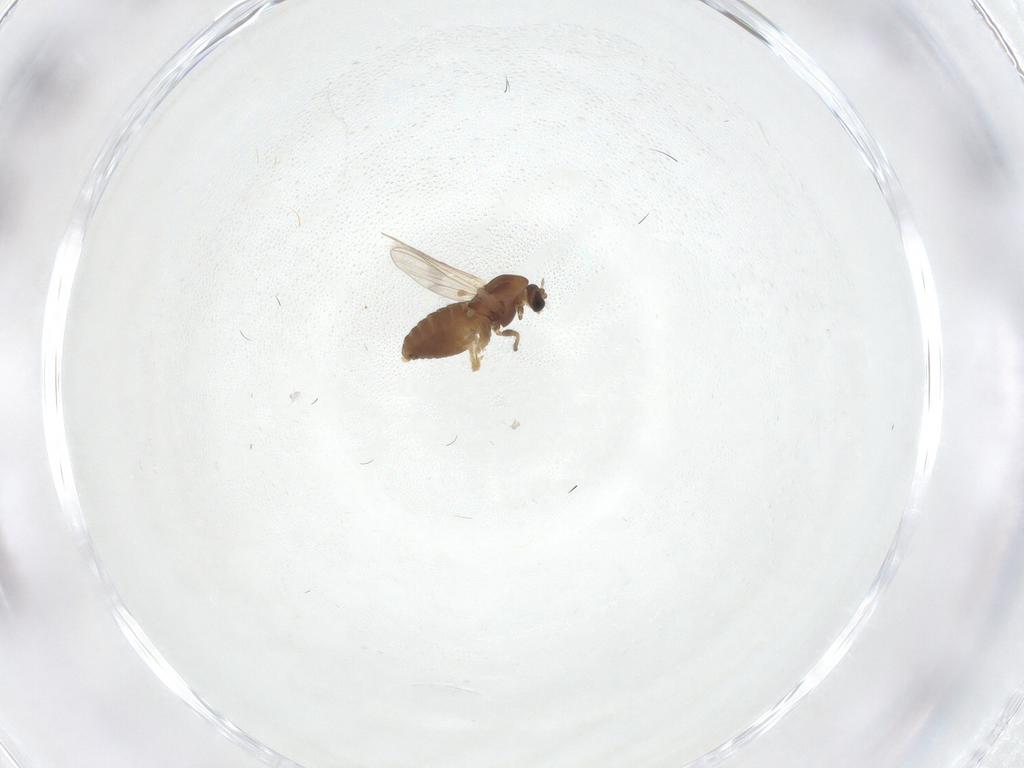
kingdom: Animalia
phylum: Arthropoda
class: Insecta
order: Diptera
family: Chironomidae
